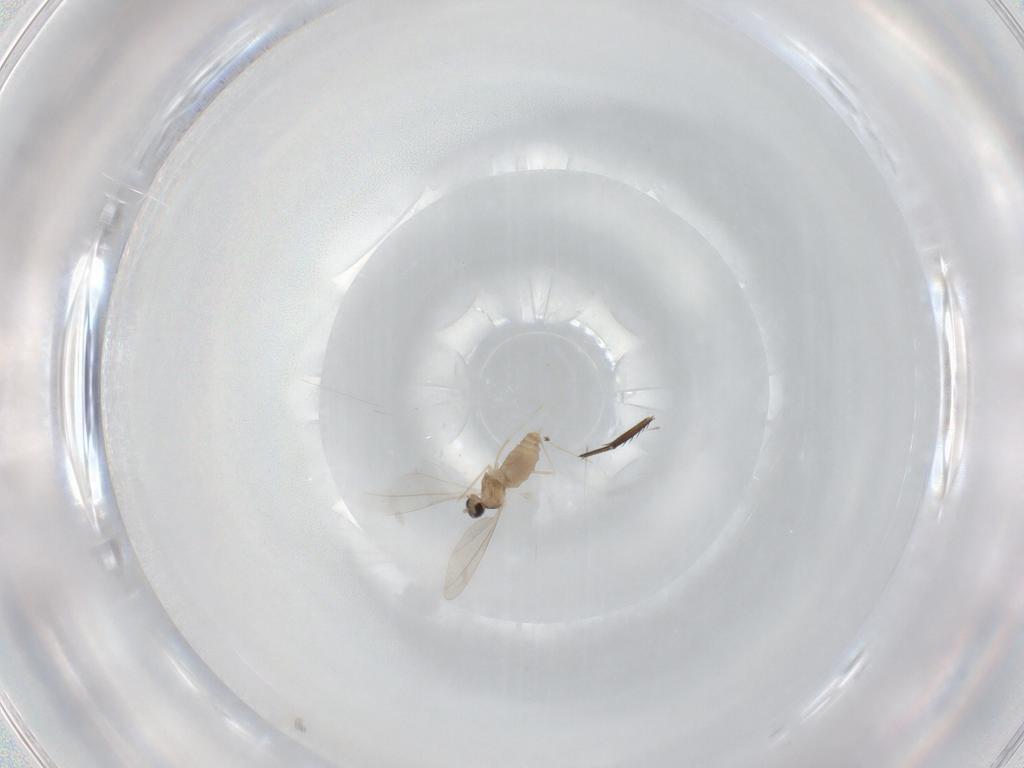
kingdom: Animalia
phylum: Arthropoda
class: Insecta
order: Diptera
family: Cecidomyiidae
